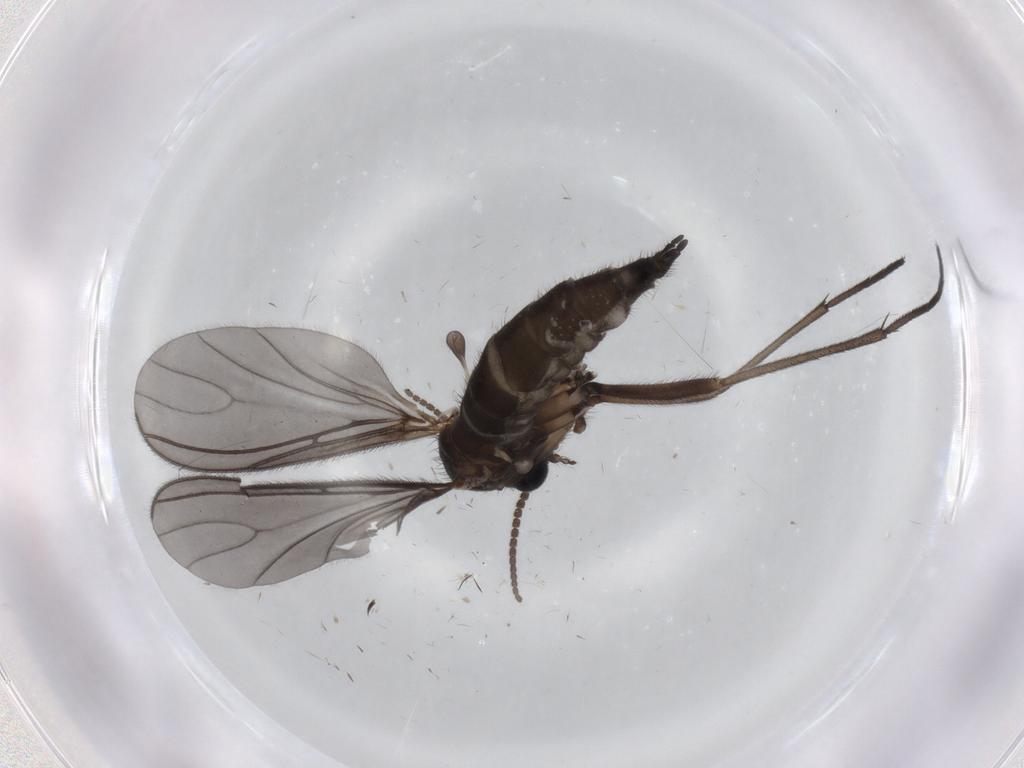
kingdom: Animalia
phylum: Arthropoda
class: Insecta
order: Diptera
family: Sciaridae
